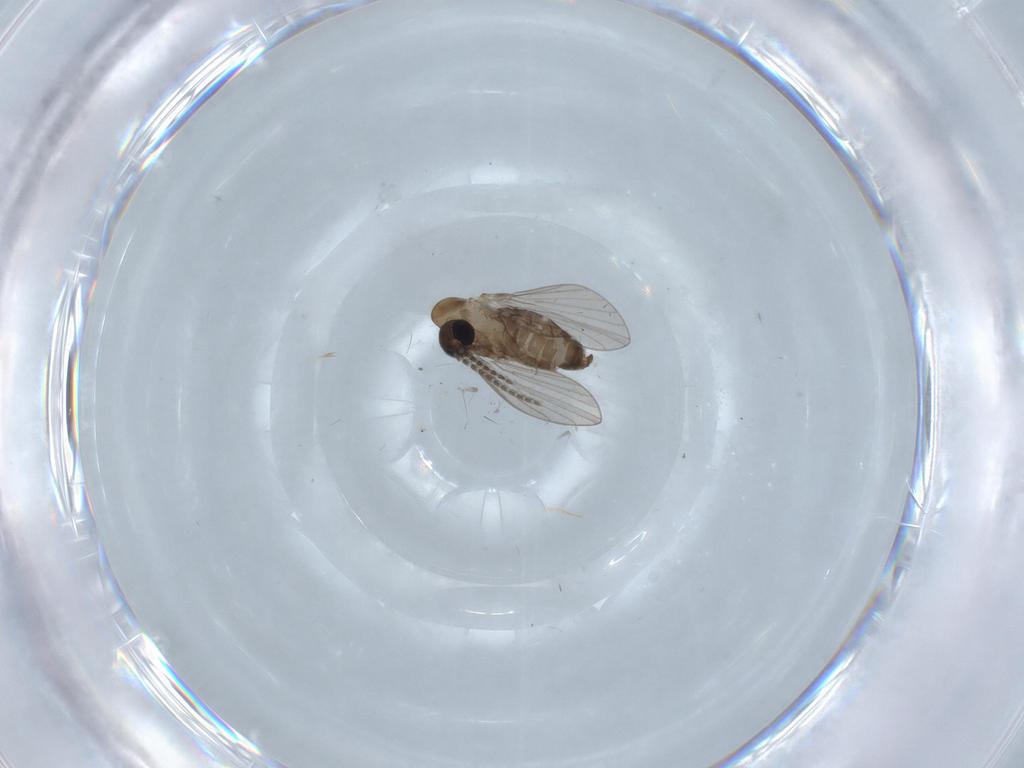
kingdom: Animalia
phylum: Arthropoda
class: Insecta
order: Diptera
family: Cecidomyiidae
